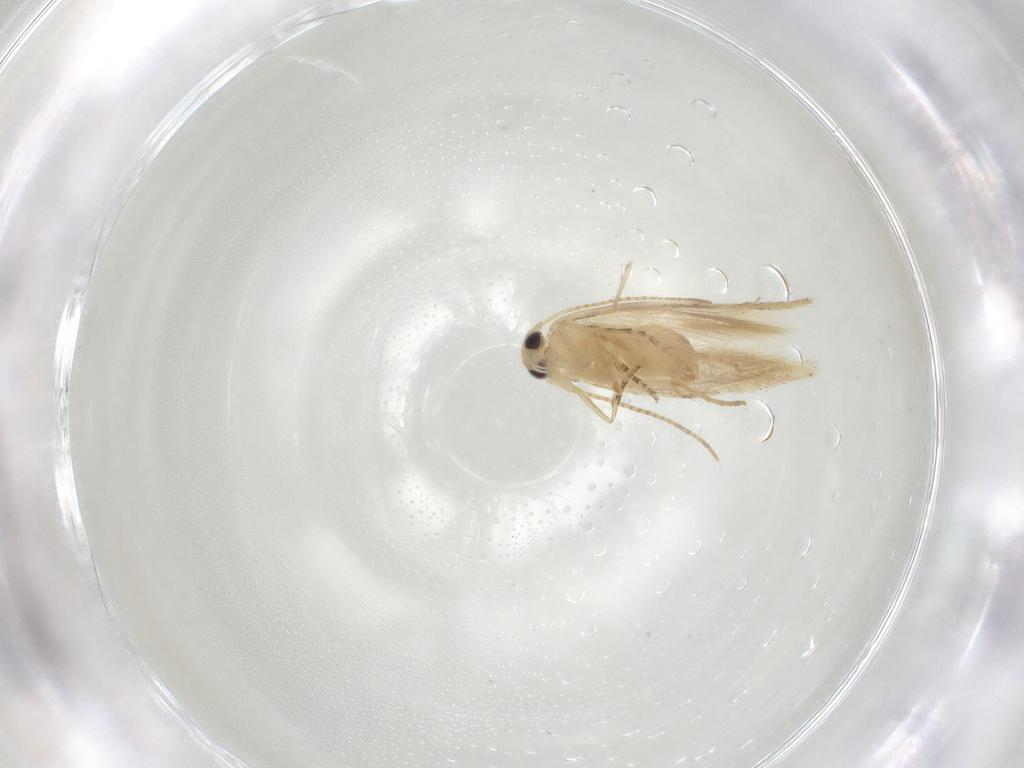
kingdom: Animalia
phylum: Arthropoda
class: Insecta
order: Lepidoptera
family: Bucculatricidae
